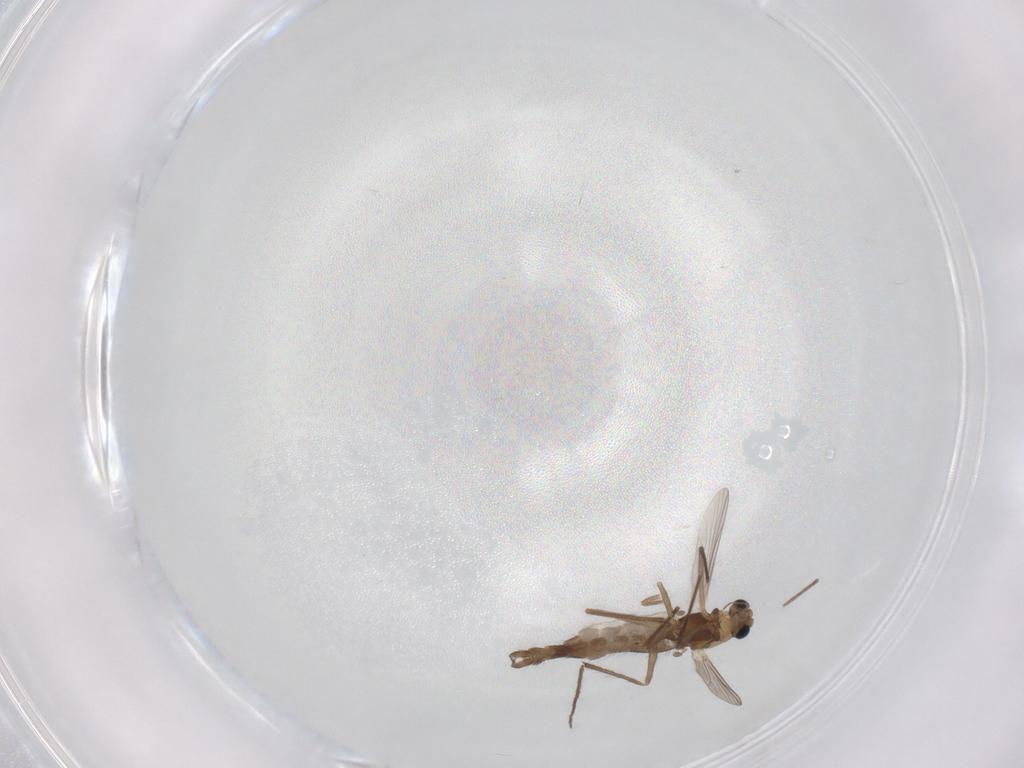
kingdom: Animalia
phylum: Arthropoda
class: Insecta
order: Diptera
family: Chironomidae
